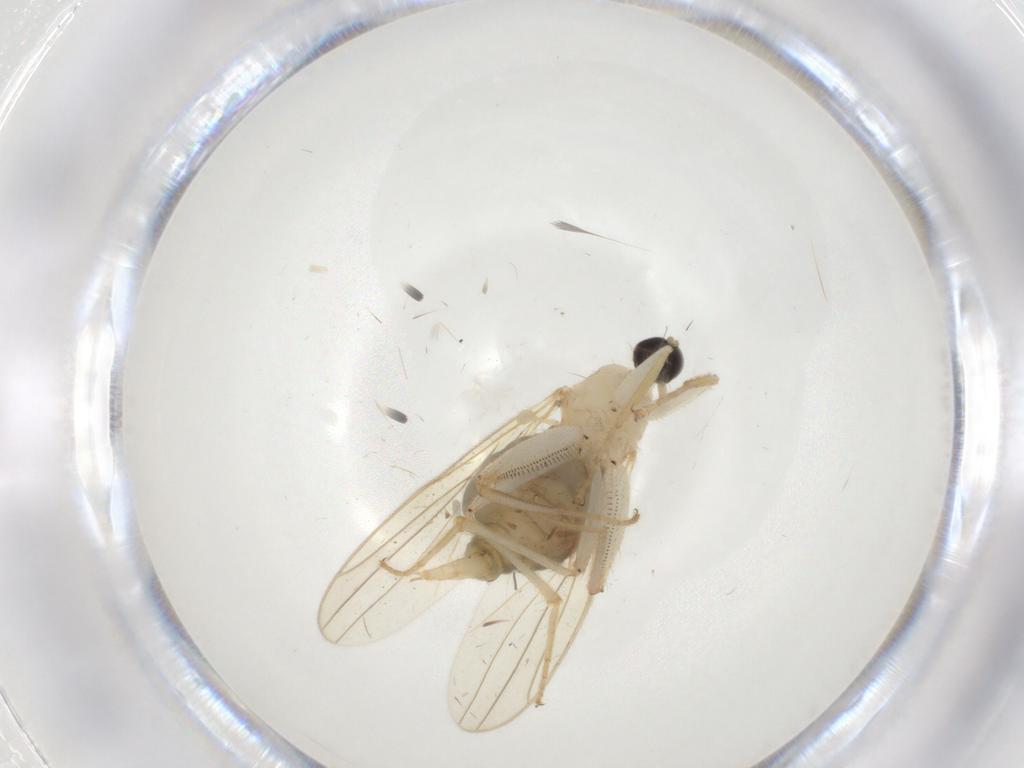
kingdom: Animalia
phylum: Arthropoda
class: Insecta
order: Diptera
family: Hybotidae
